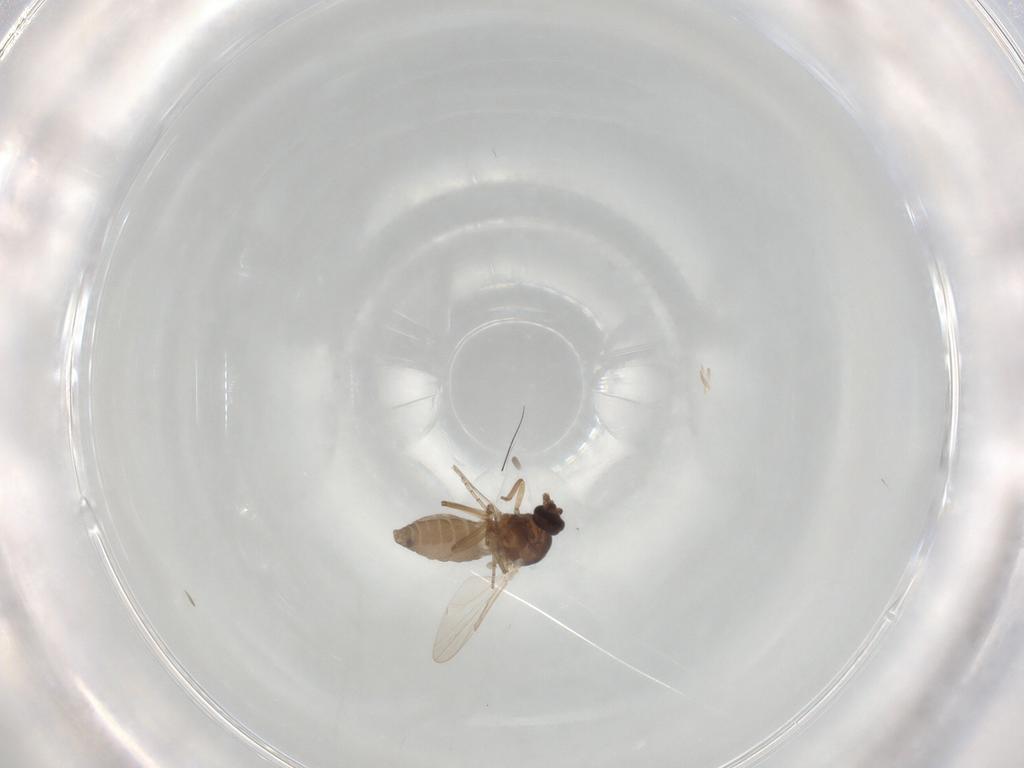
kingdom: Animalia
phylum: Arthropoda
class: Insecta
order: Diptera
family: Ceratopogonidae
